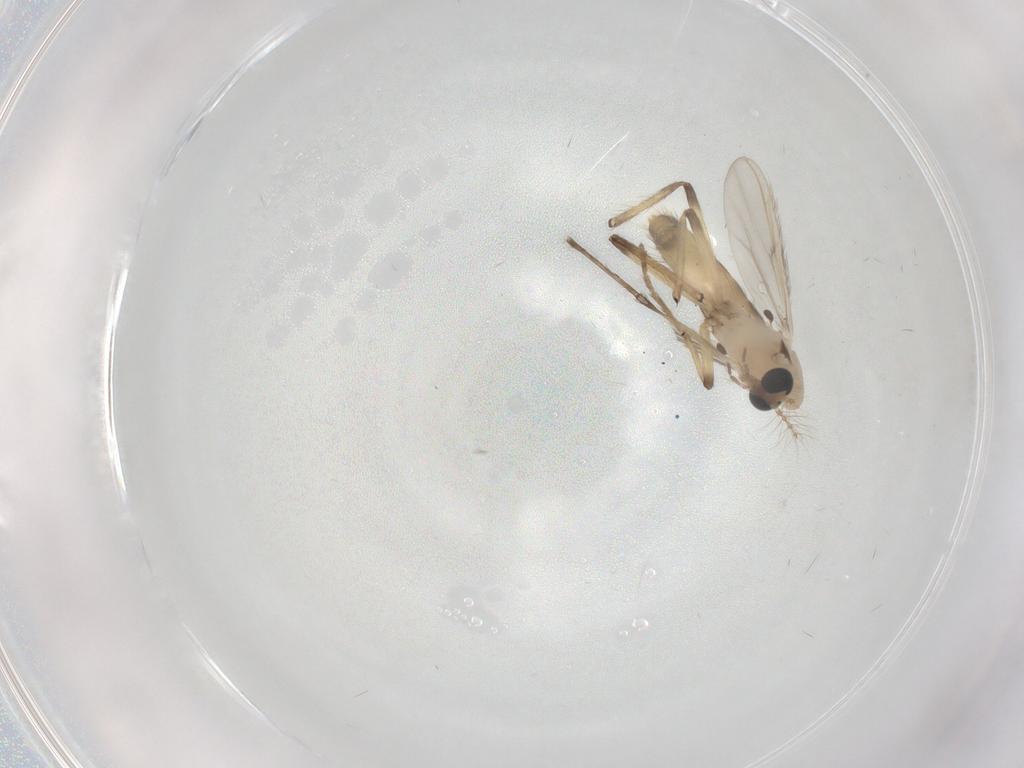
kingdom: Animalia
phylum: Arthropoda
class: Insecta
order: Diptera
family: Chironomidae
